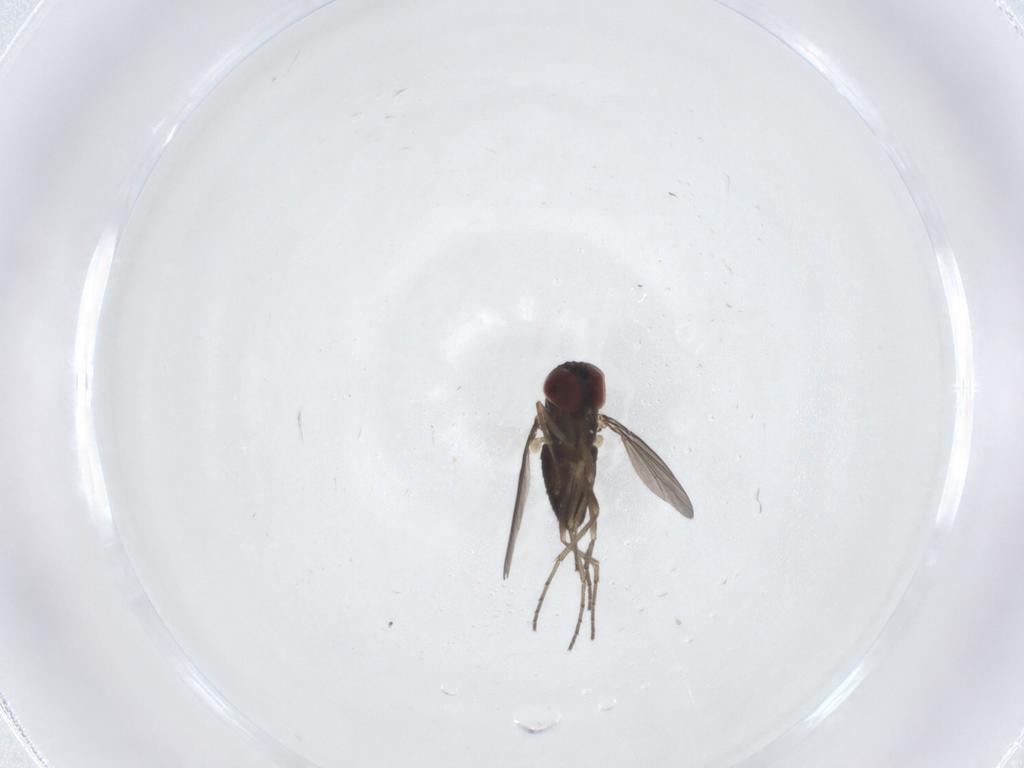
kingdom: Animalia
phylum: Arthropoda
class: Insecta
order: Diptera
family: Dolichopodidae
